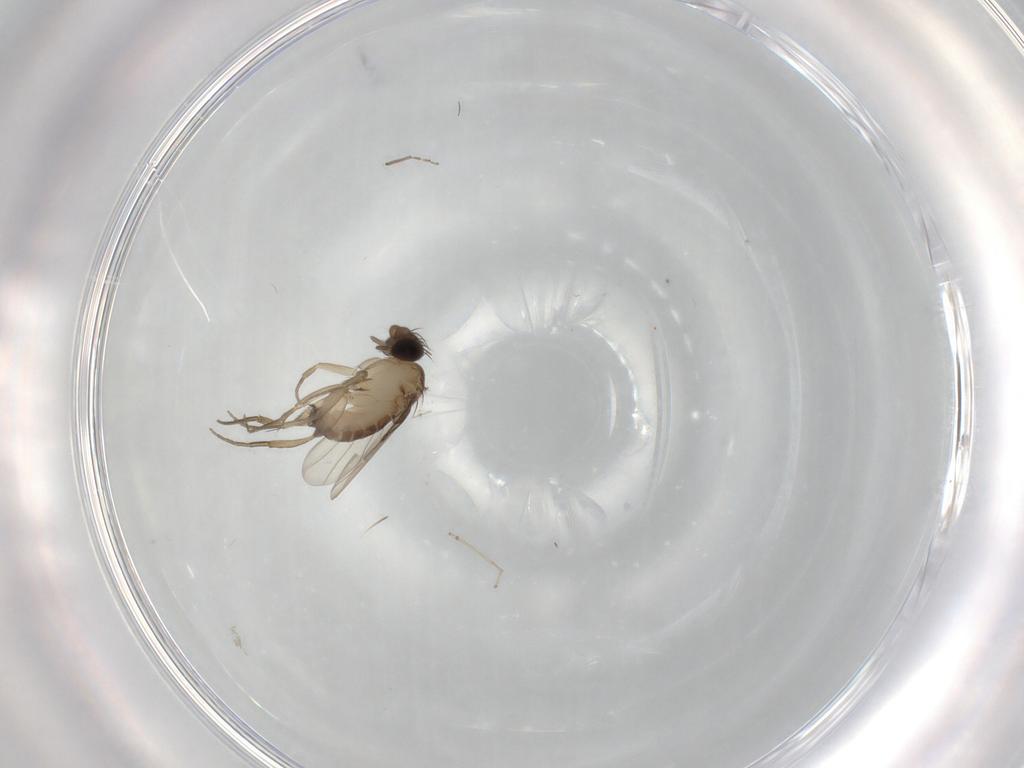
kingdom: Animalia
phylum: Arthropoda
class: Insecta
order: Diptera
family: Phoridae
